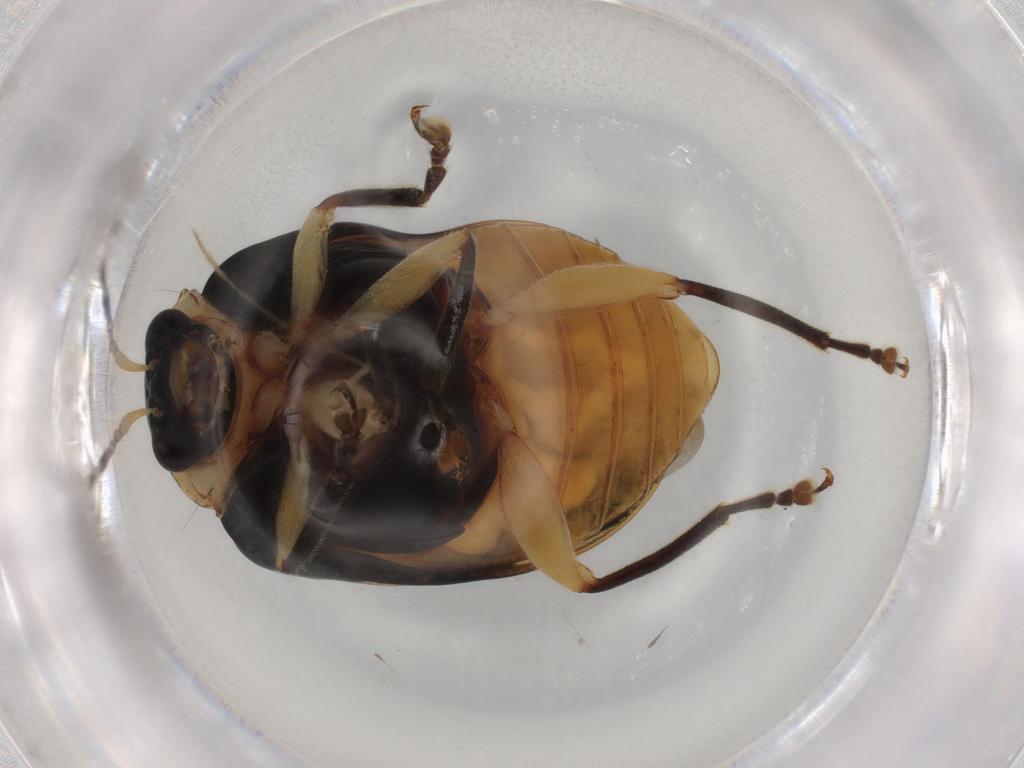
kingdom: Animalia
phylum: Arthropoda
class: Insecta
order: Coleoptera
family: Chrysomelidae
